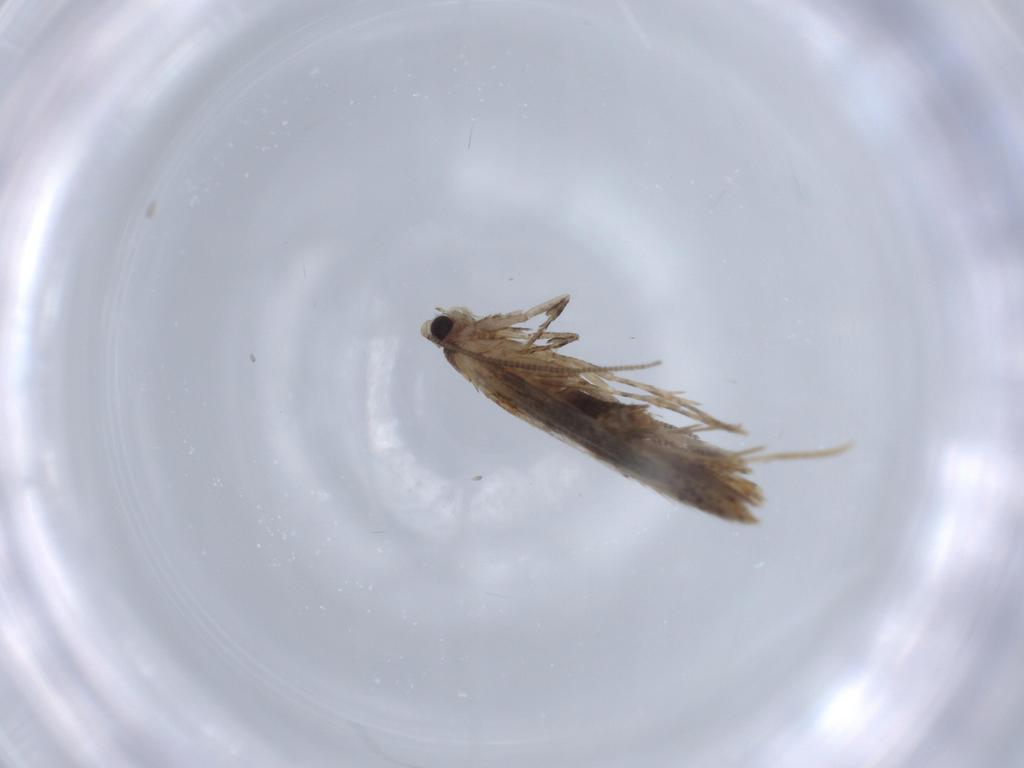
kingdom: Animalia
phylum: Arthropoda
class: Insecta
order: Lepidoptera
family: Tineidae
